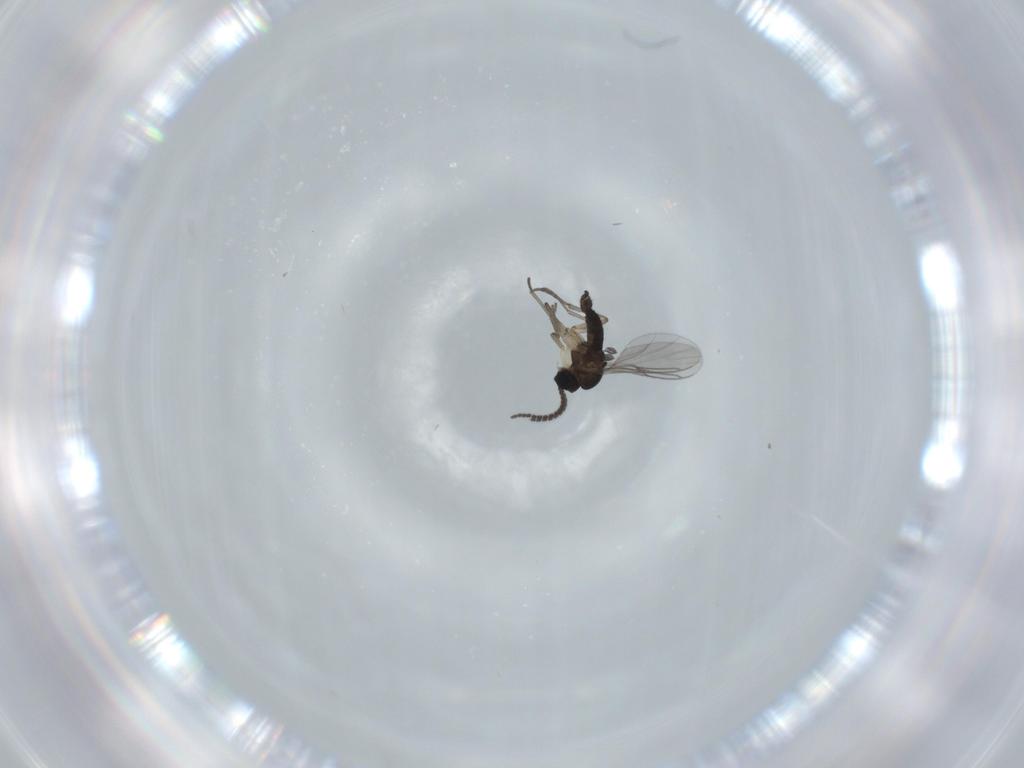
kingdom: Animalia
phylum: Arthropoda
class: Insecta
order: Diptera
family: Sciaridae
